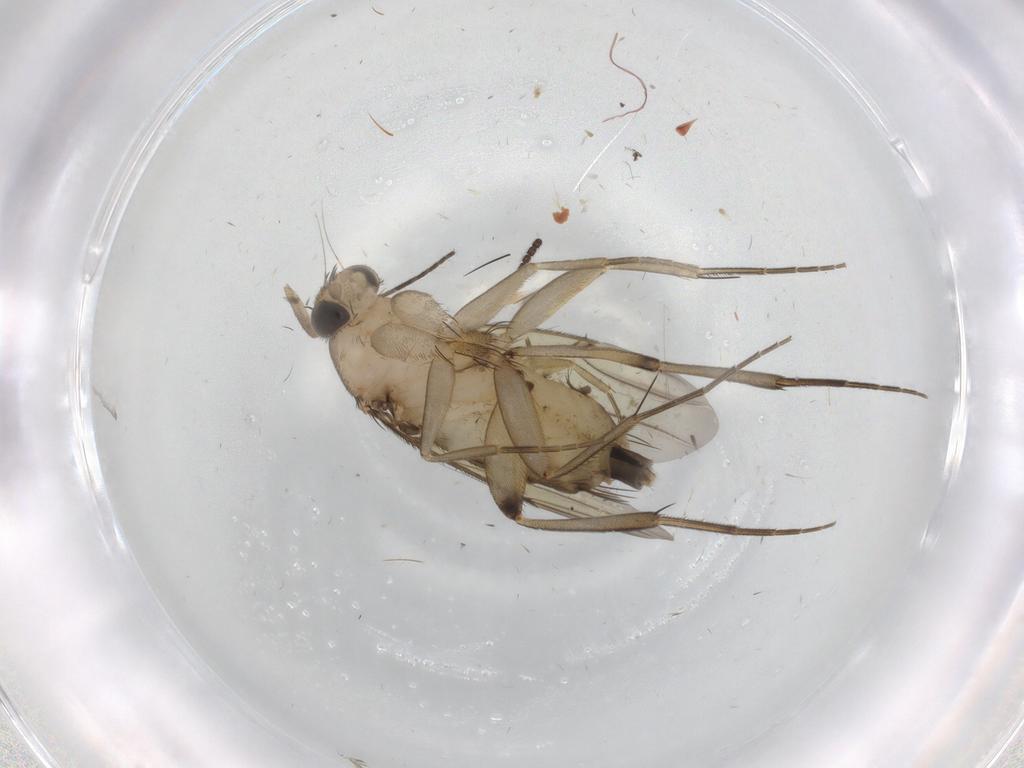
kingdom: Animalia
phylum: Arthropoda
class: Insecta
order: Diptera
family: Phoridae
